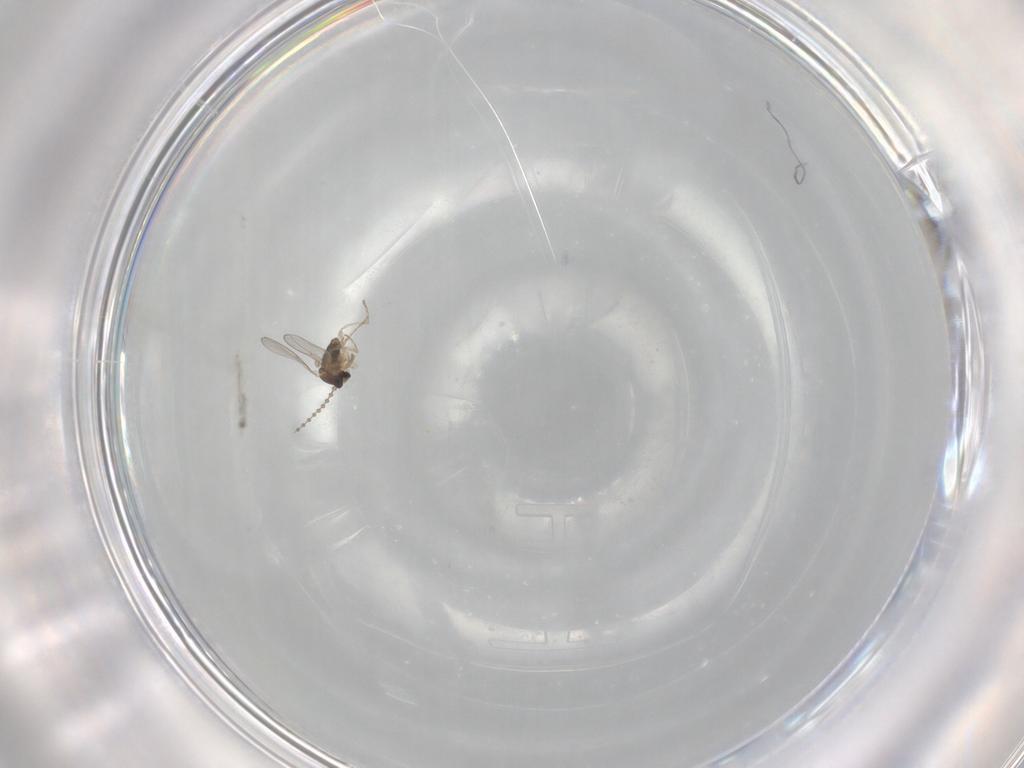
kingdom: Animalia
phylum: Arthropoda
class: Insecta
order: Diptera
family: Cecidomyiidae
